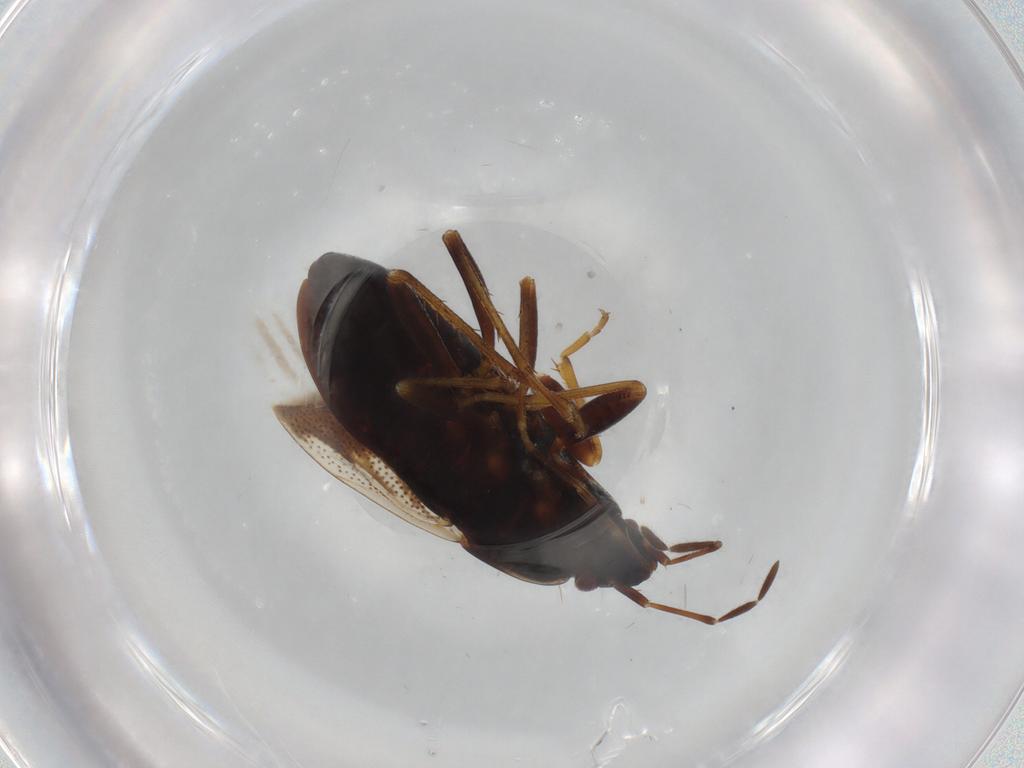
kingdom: Animalia
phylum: Arthropoda
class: Insecta
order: Hemiptera
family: Rhyparochromidae
